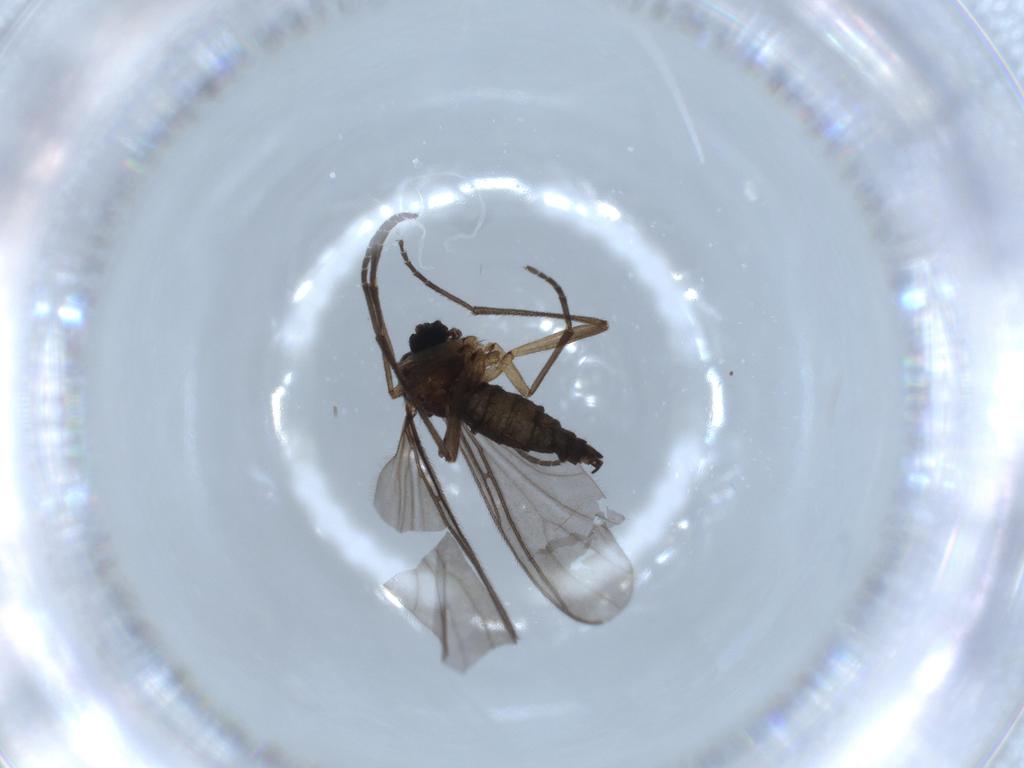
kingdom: Animalia
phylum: Arthropoda
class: Insecta
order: Diptera
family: Sciaridae
